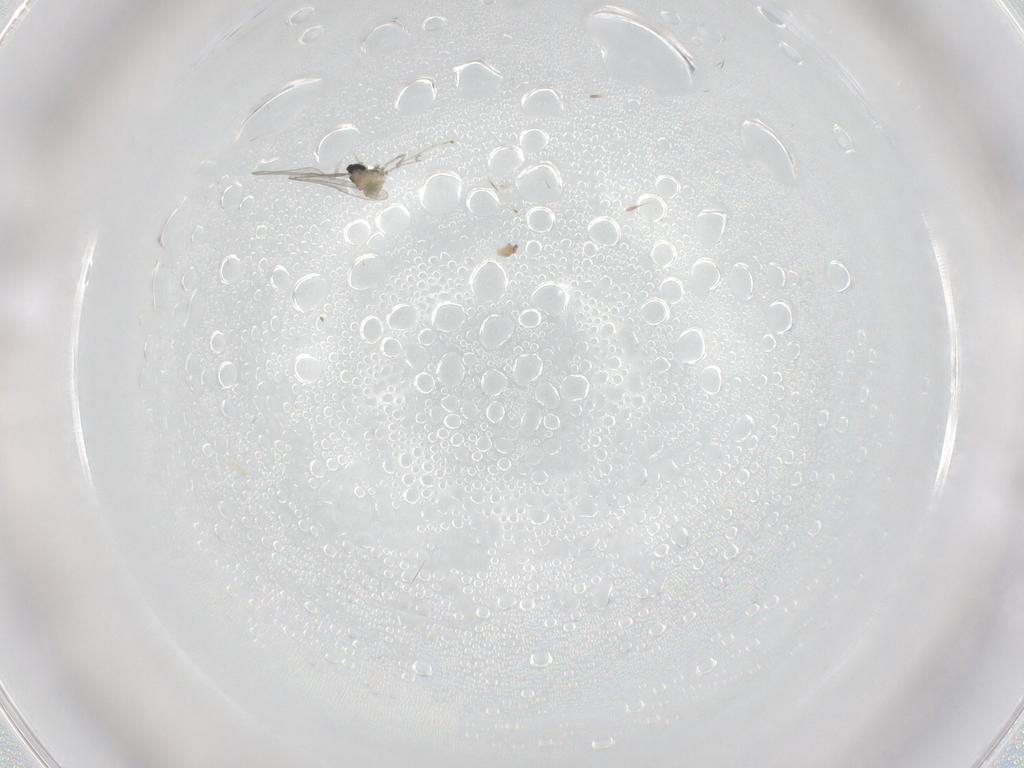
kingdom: Animalia
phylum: Arthropoda
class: Insecta
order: Diptera
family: Cecidomyiidae
